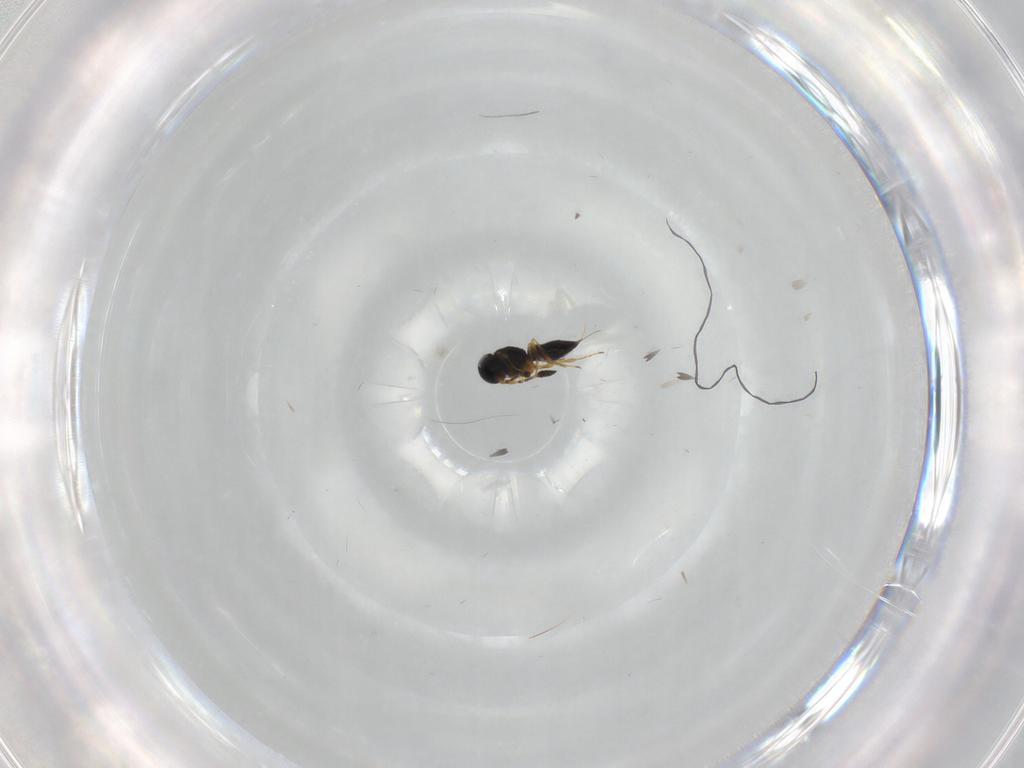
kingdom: Animalia
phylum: Arthropoda
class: Insecta
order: Hymenoptera
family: Scelionidae
